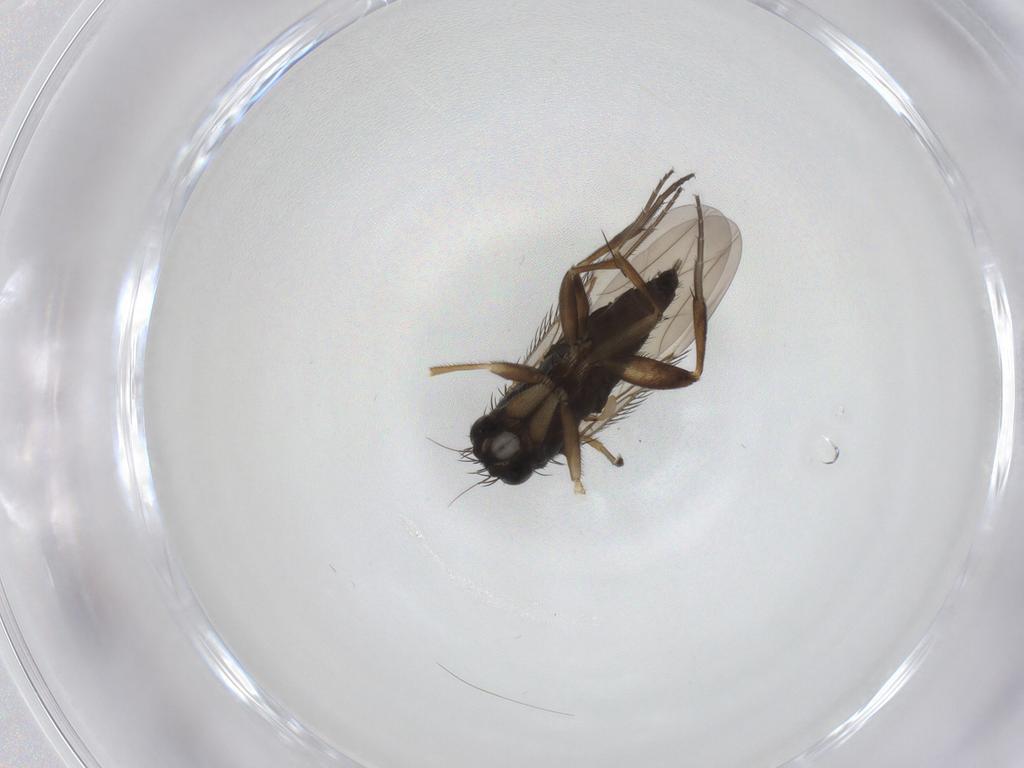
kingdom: Animalia
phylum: Arthropoda
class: Insecta
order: Diptera
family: Phoridae
